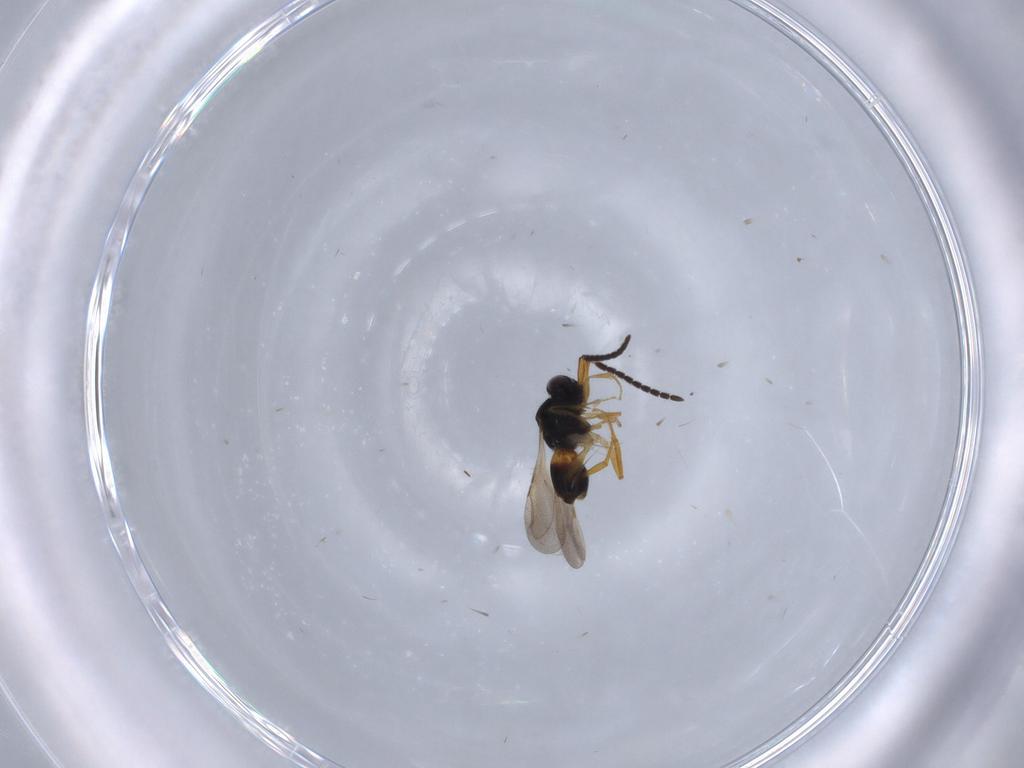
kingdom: Animalia
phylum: Arthropoda
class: Insecta
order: Hymenoptera
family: Ceraphronidae
